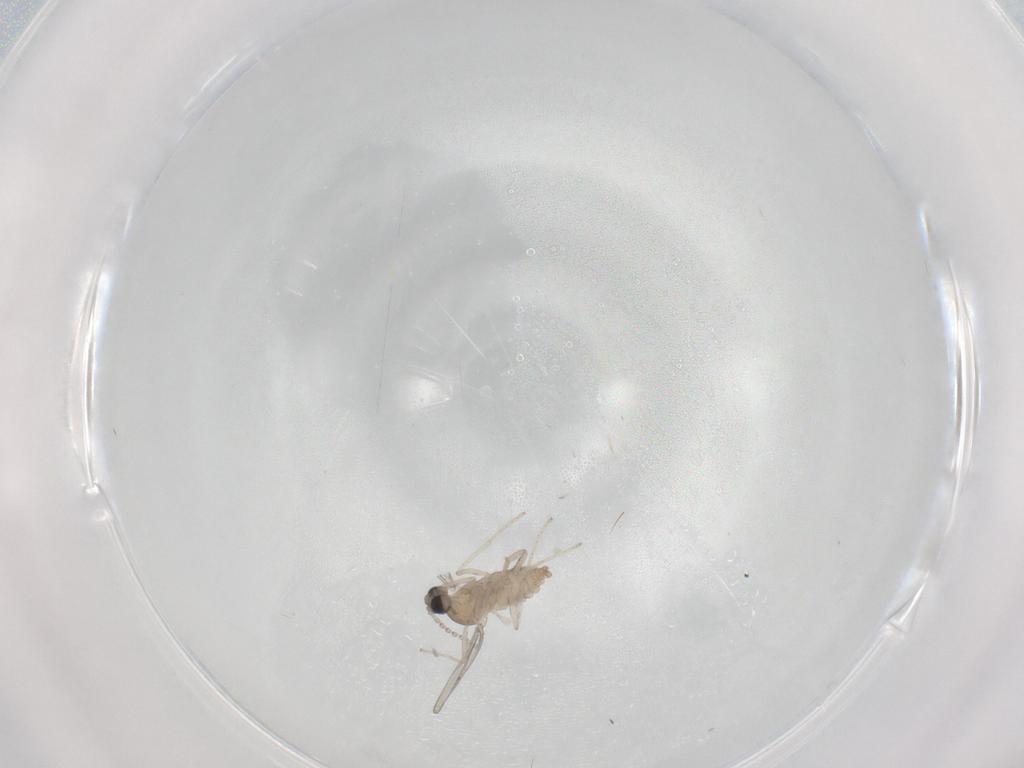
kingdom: Animalia
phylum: Arthropoda
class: Insecta
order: Diptera
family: Cecidomyiidae
